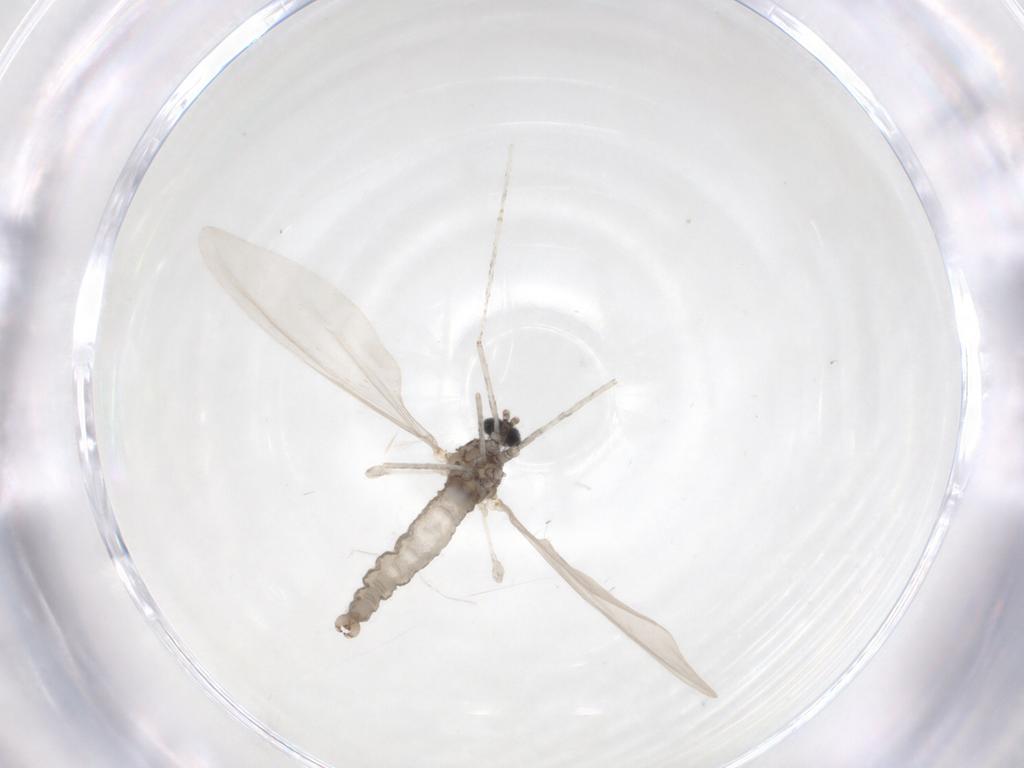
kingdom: Animalia
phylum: Arthropoda
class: Insecta
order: Diptera
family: Cecidomyiidae
